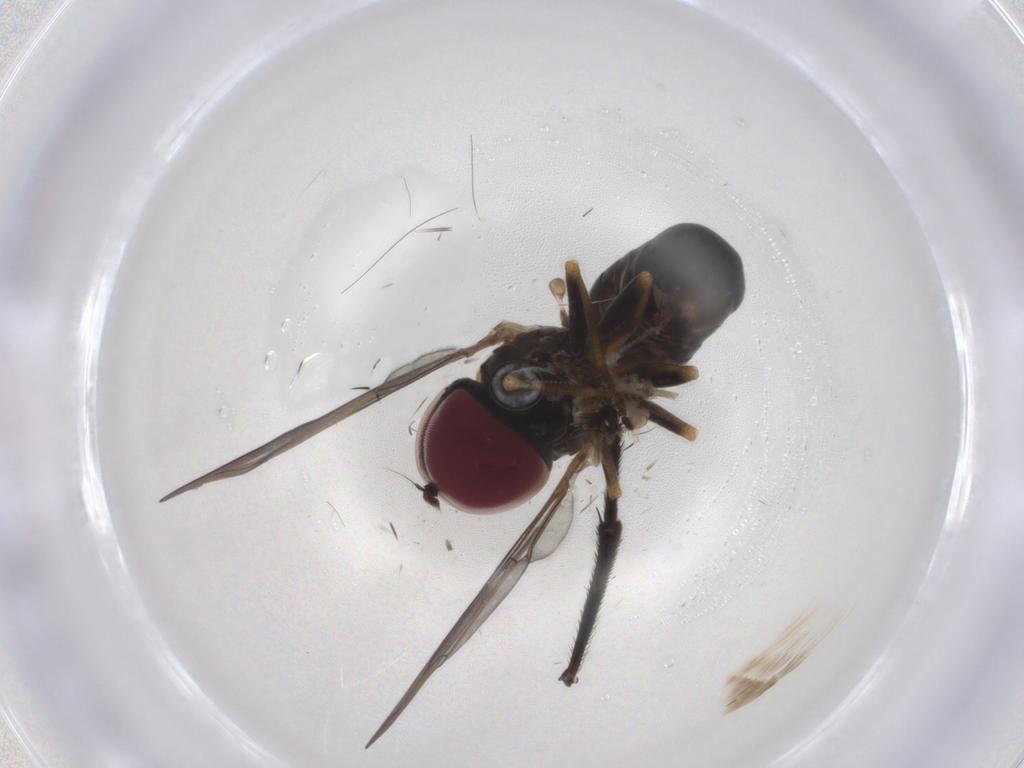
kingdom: Animalia
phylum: Arthropoda
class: Insecta
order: Diptera
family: Pipunculidae
